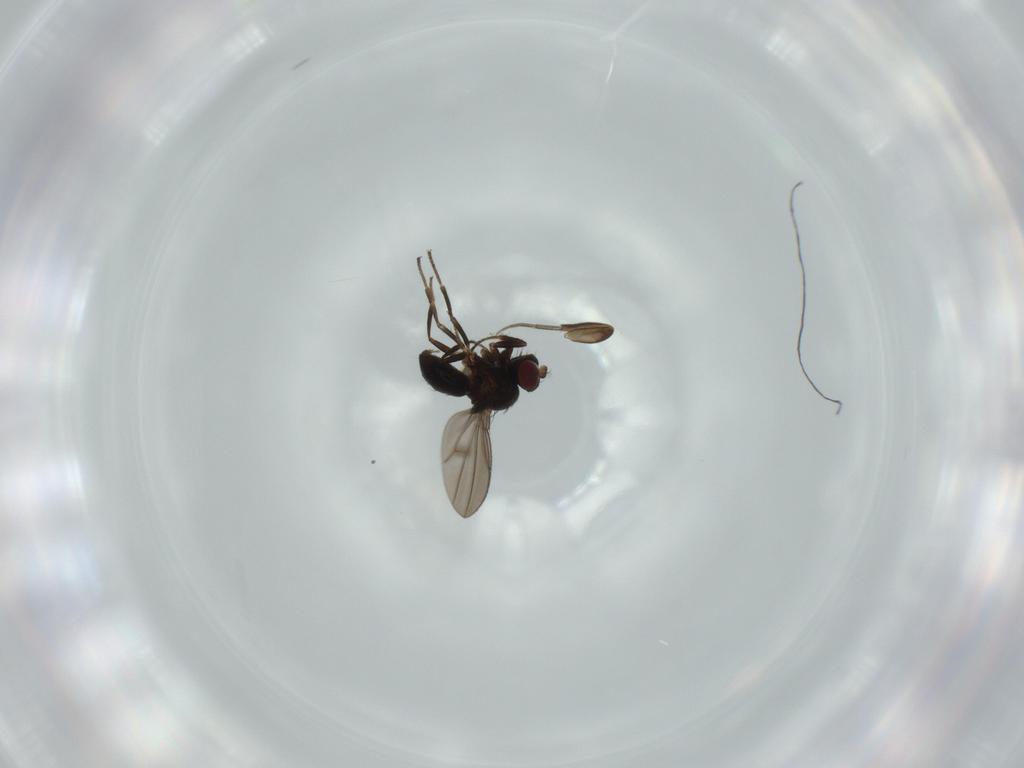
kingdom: Animalia
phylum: Arthropoda
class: Insecta
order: Diptera
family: Ephydridae
